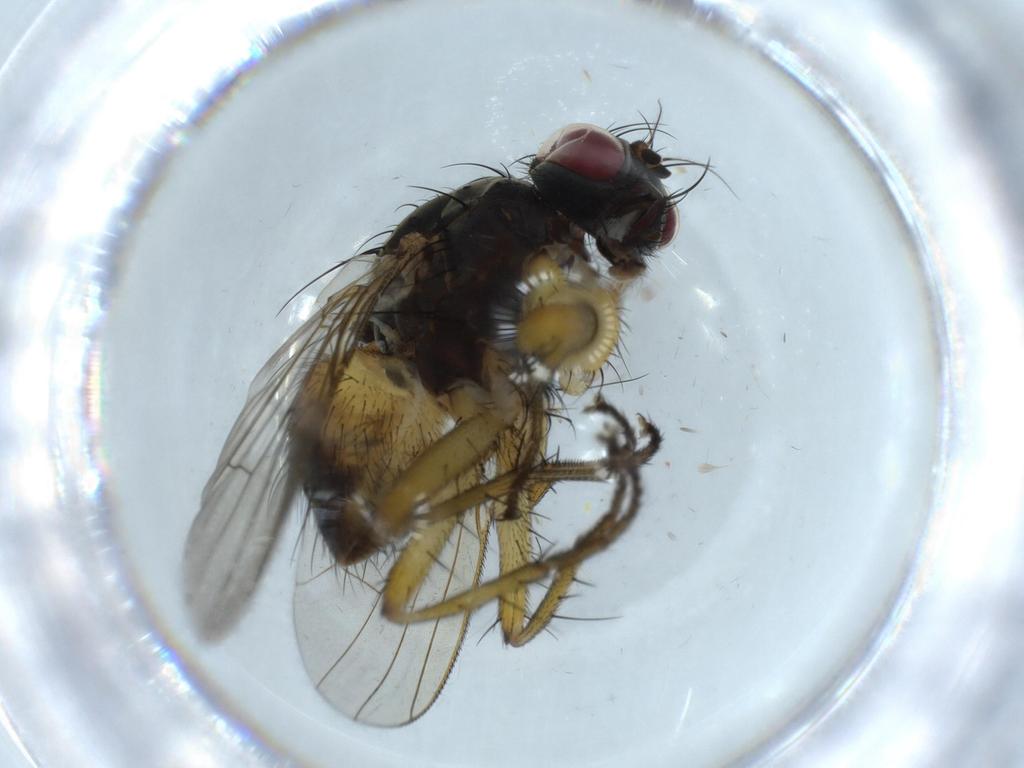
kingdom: Animalia
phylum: Arthropoda
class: Insecta
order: Diptera
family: Muscidae
